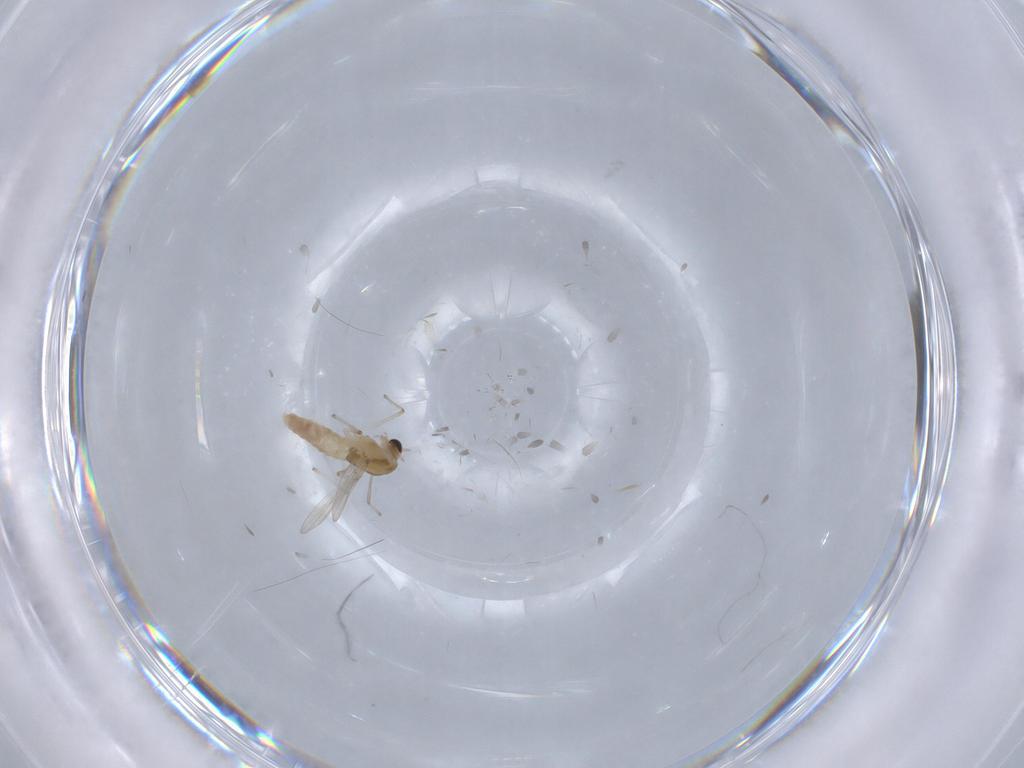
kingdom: Animalia
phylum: Arthropoda
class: Insecta
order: Diptera
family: Chironomidae
